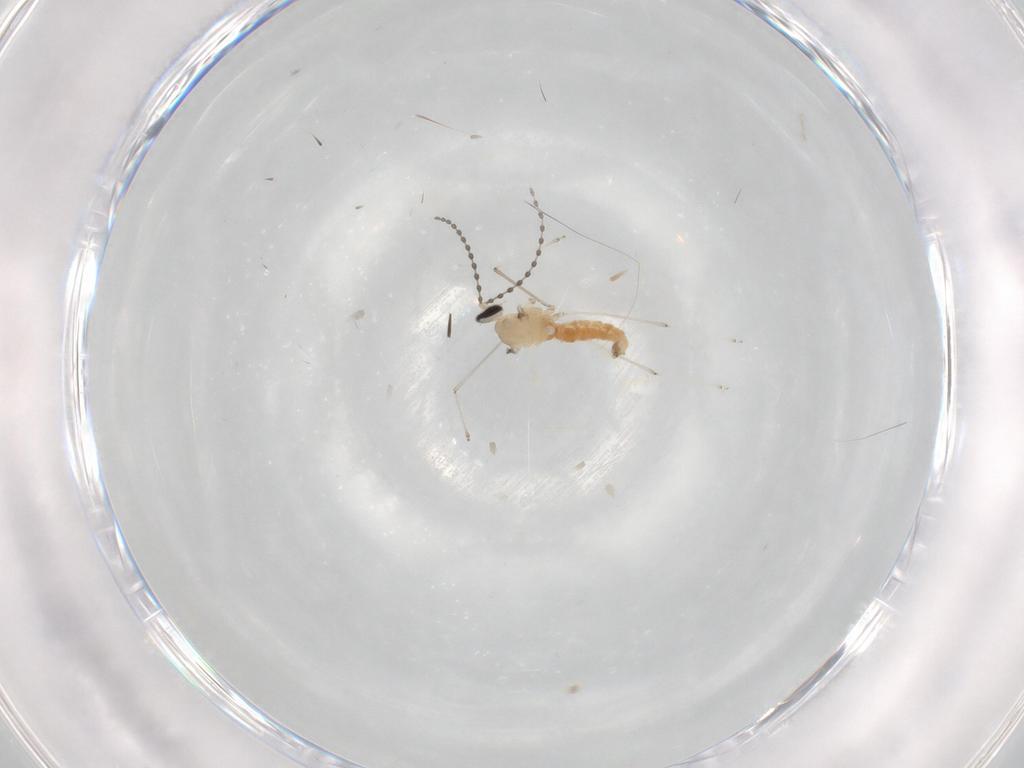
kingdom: Animalia
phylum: Arthropoda
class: Insecta
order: Diptera
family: Cecidomyiidae
